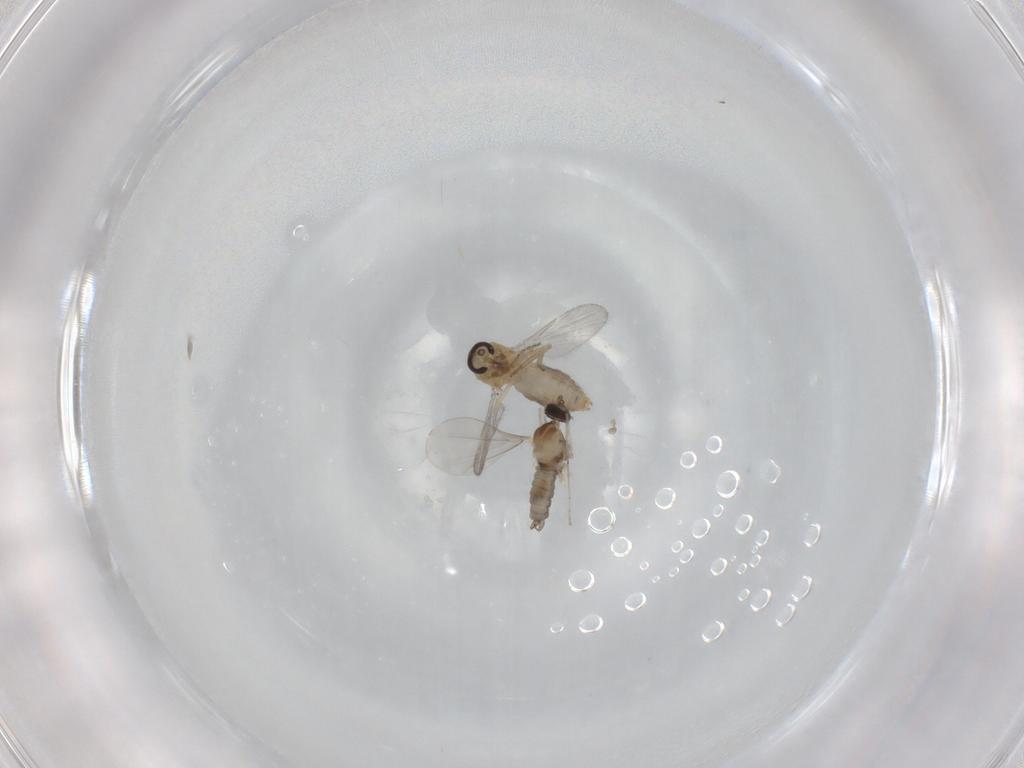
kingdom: Animalia
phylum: Arthropoda
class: Insecta
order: Diptera
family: Ceratopogonidae
